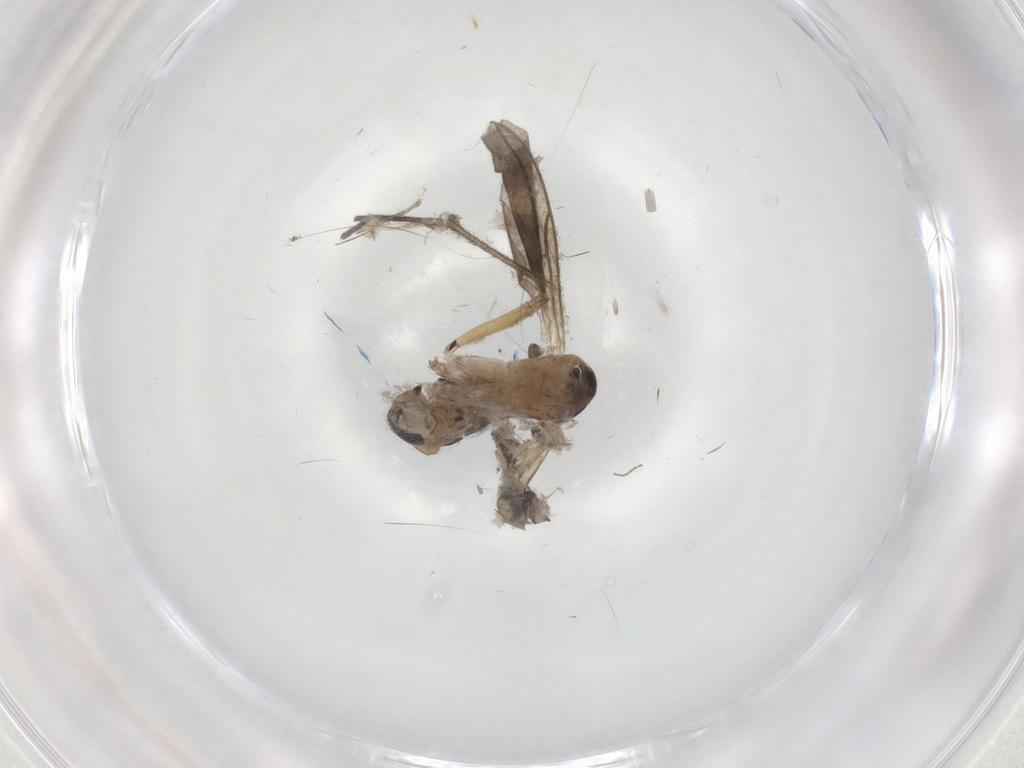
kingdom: Animalia
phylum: Arthropoda
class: Insecta
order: Diptera
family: Sciaridae
